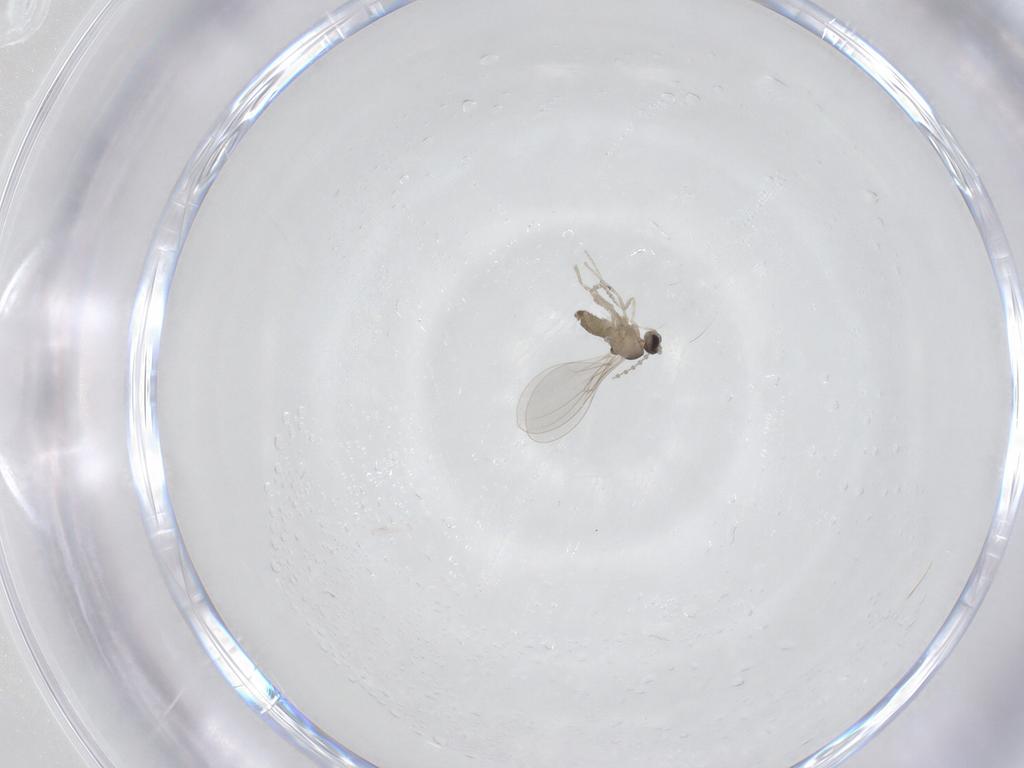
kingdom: Animalia
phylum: Arthropoda
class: Insecta
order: Diptera
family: Cecidomyiidae
